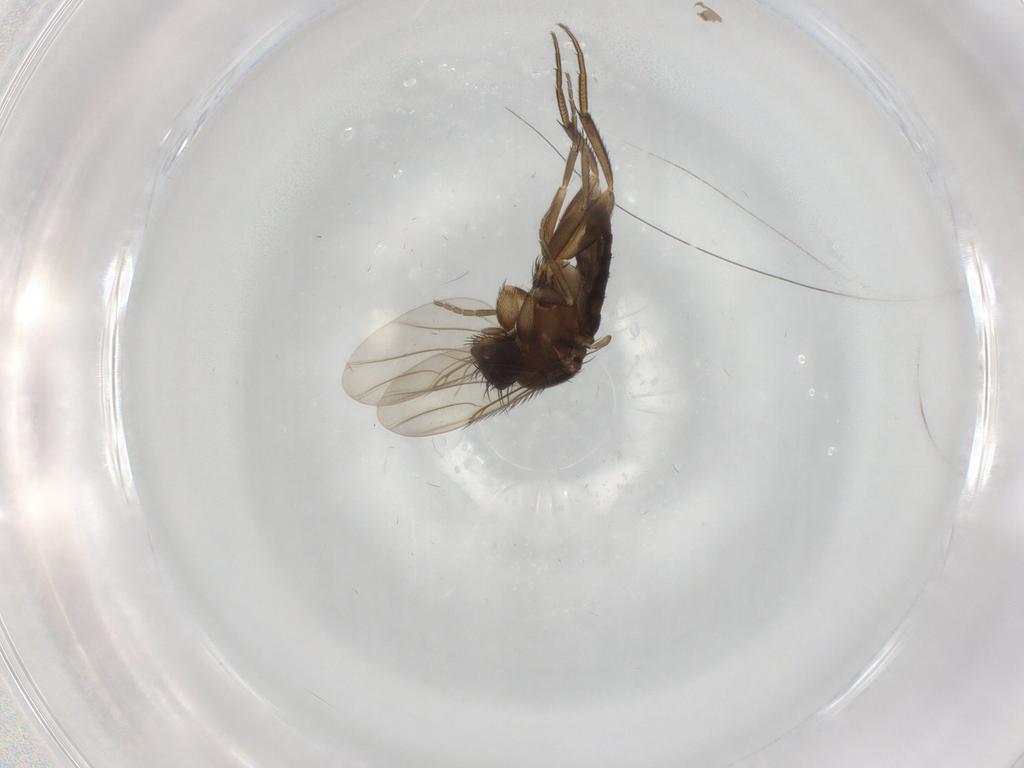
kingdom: Animalia
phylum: Arthropoda
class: Insecta
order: Diptera
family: Phoridae
